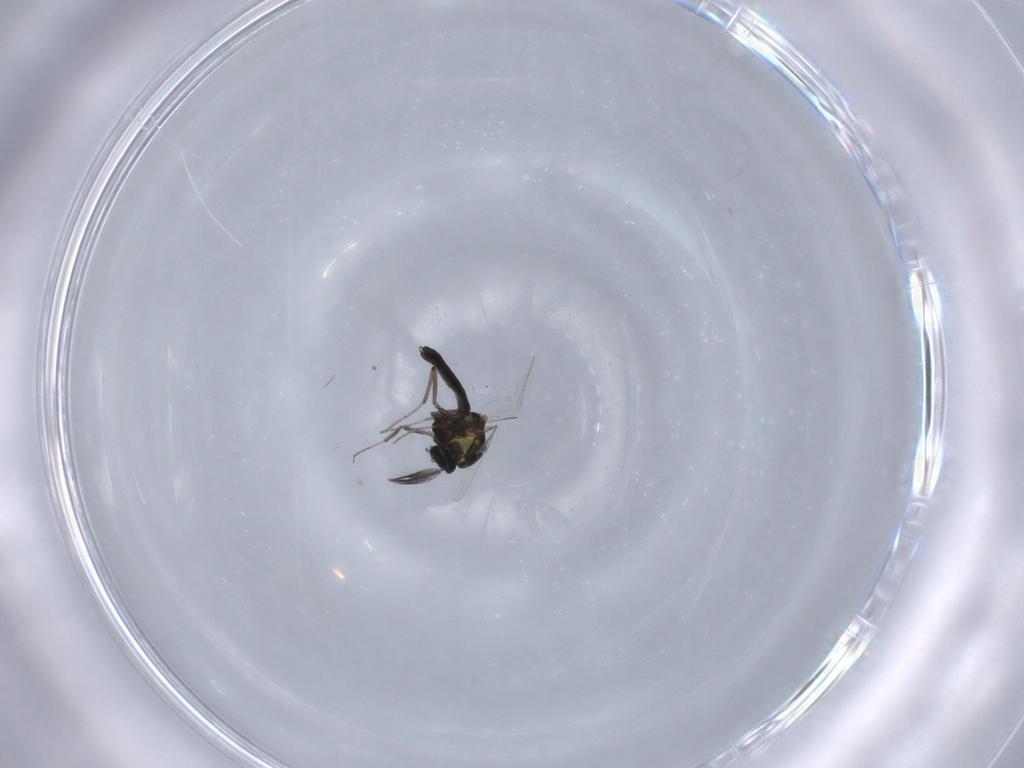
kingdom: Animalia
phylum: Arthropoda
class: Insecta
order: Diptera
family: Ceratopogonidae
